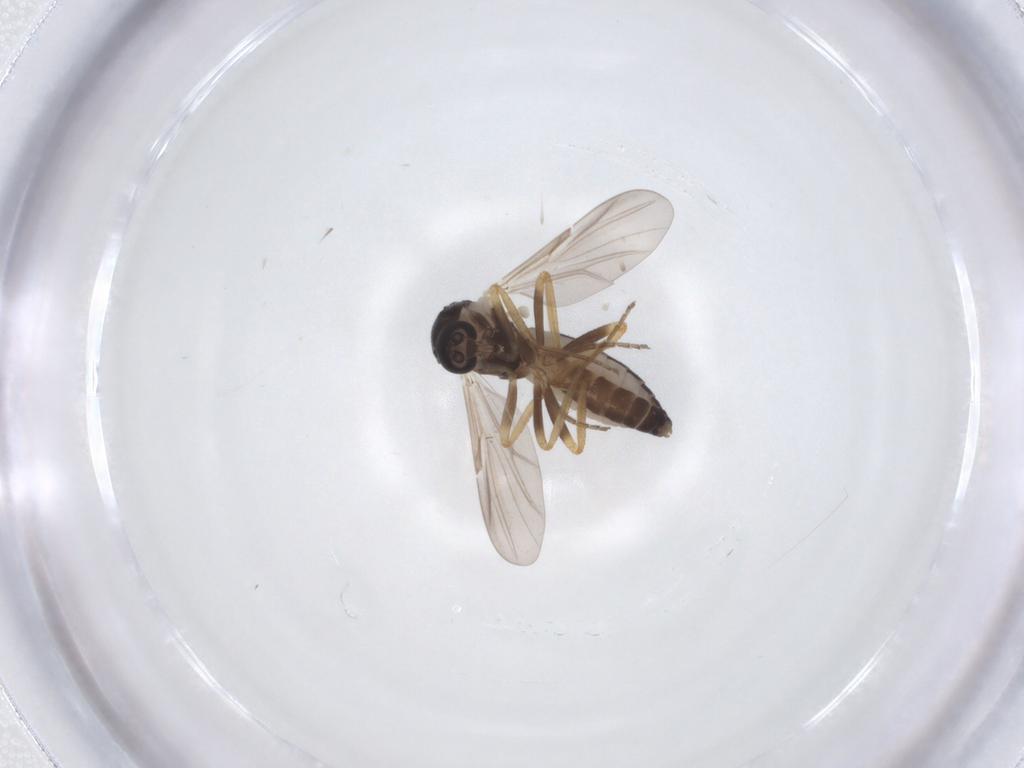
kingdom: Animalia
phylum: Arthropoda
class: Insecta
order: Diptera
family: Ceratopogonidae
